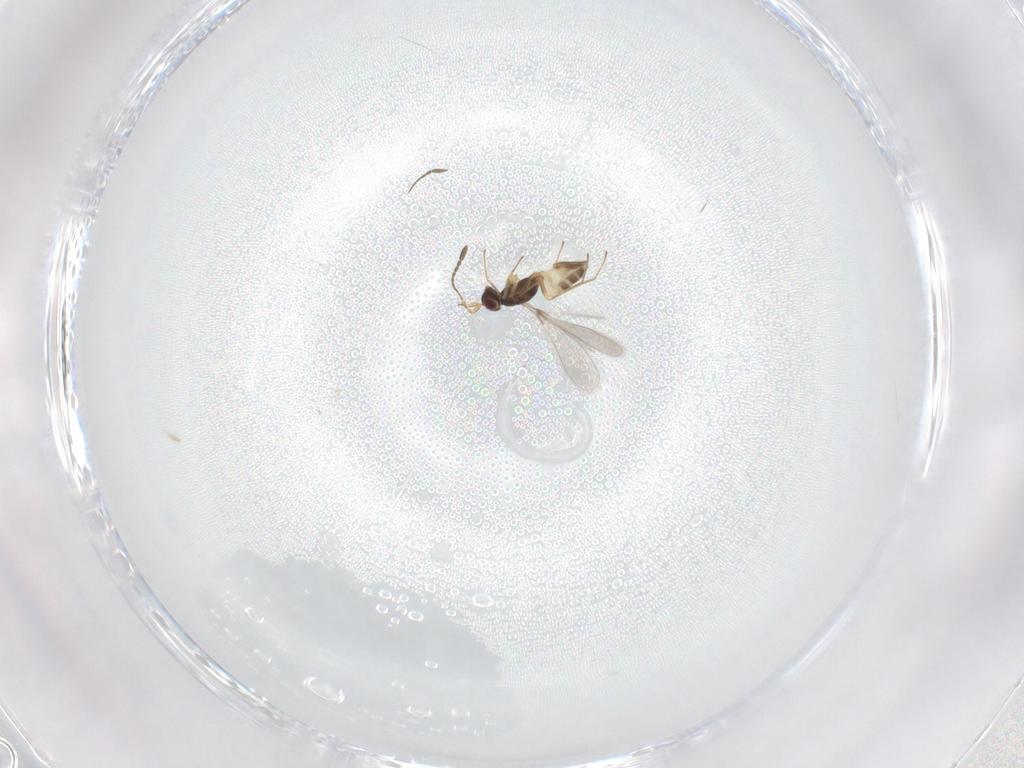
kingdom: Animalia
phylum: Arthropoda
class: Insecta
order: Hymenoptera
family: Mymaridae
